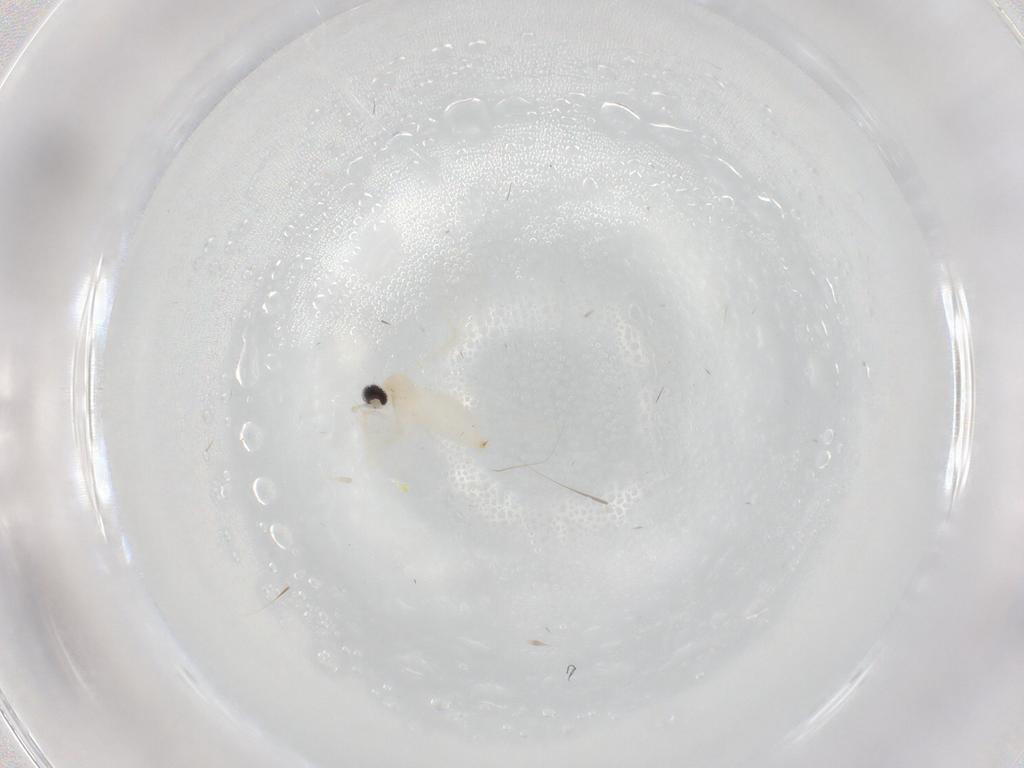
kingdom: Animalia
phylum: Arthropoda
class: Insecta
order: Diptera
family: Cecidomyiidae
